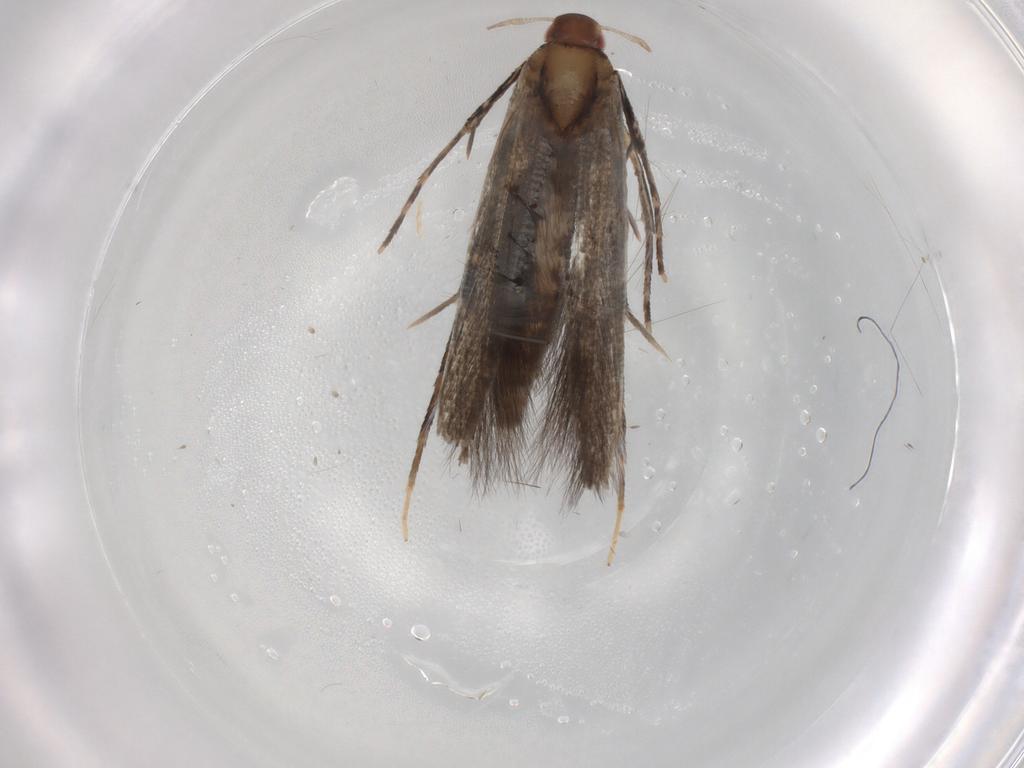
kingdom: Animalia
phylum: Arthropoda
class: Insecta
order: Lepidoptera
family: Cosmopterigidae
